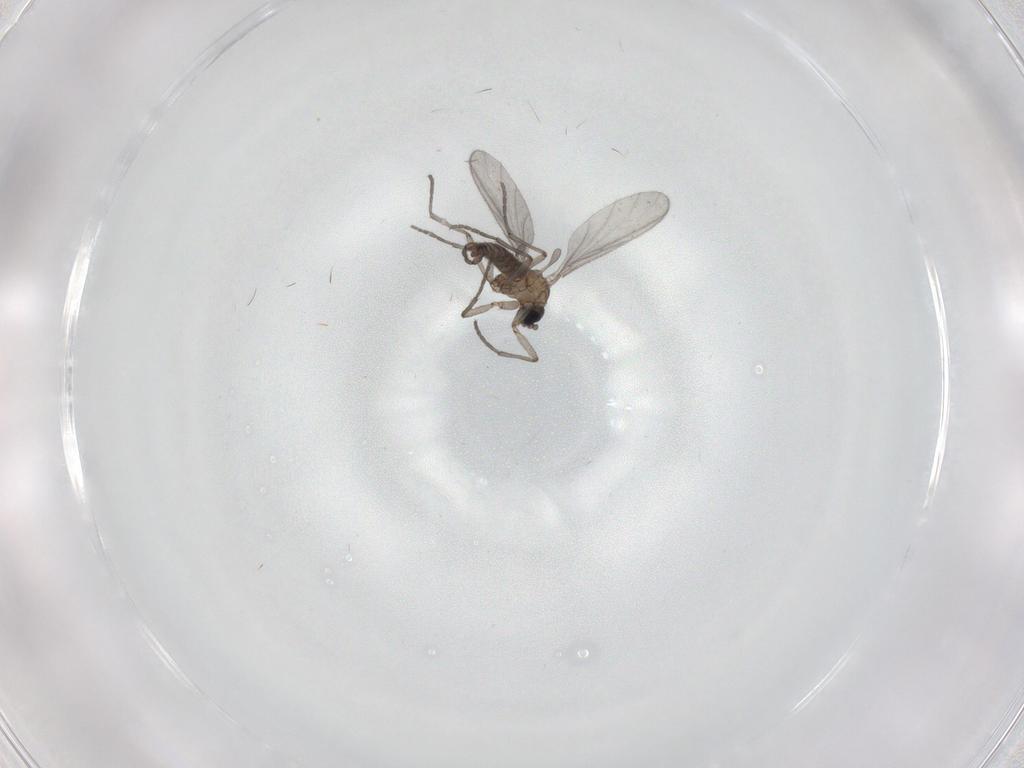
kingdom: Animalia
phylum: Arthropoda
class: Insecta
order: Diptera
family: Sciaridae
